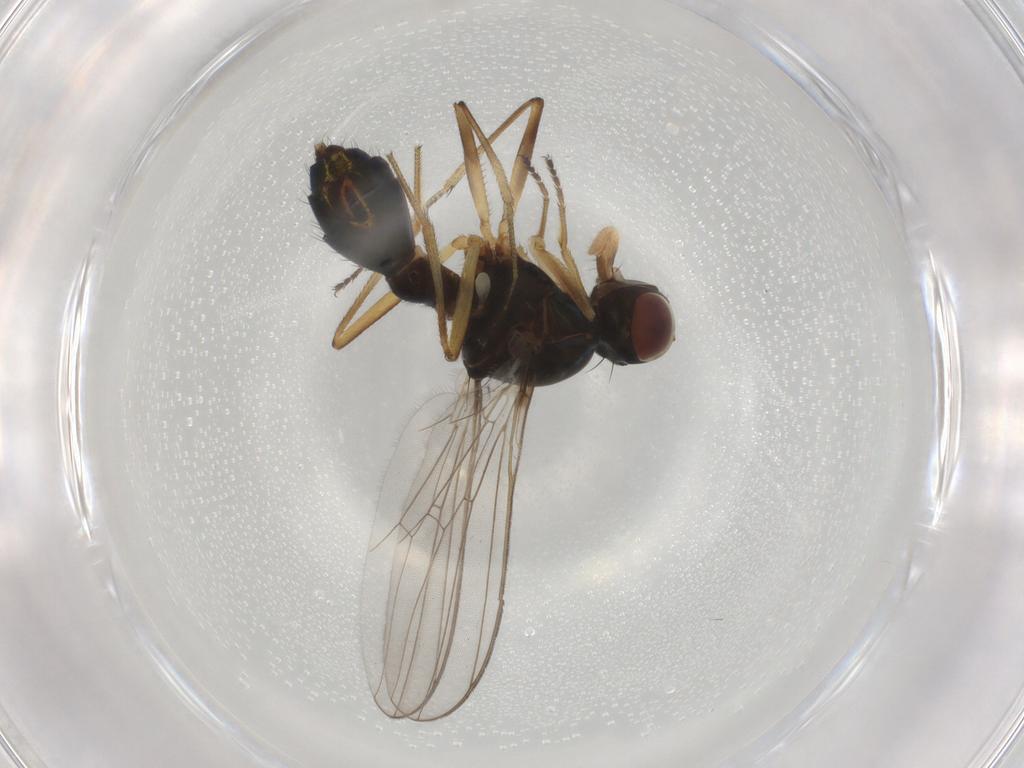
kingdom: Animalia
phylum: Arthropoda
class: Insecta
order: Diptera
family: Sepsidae
